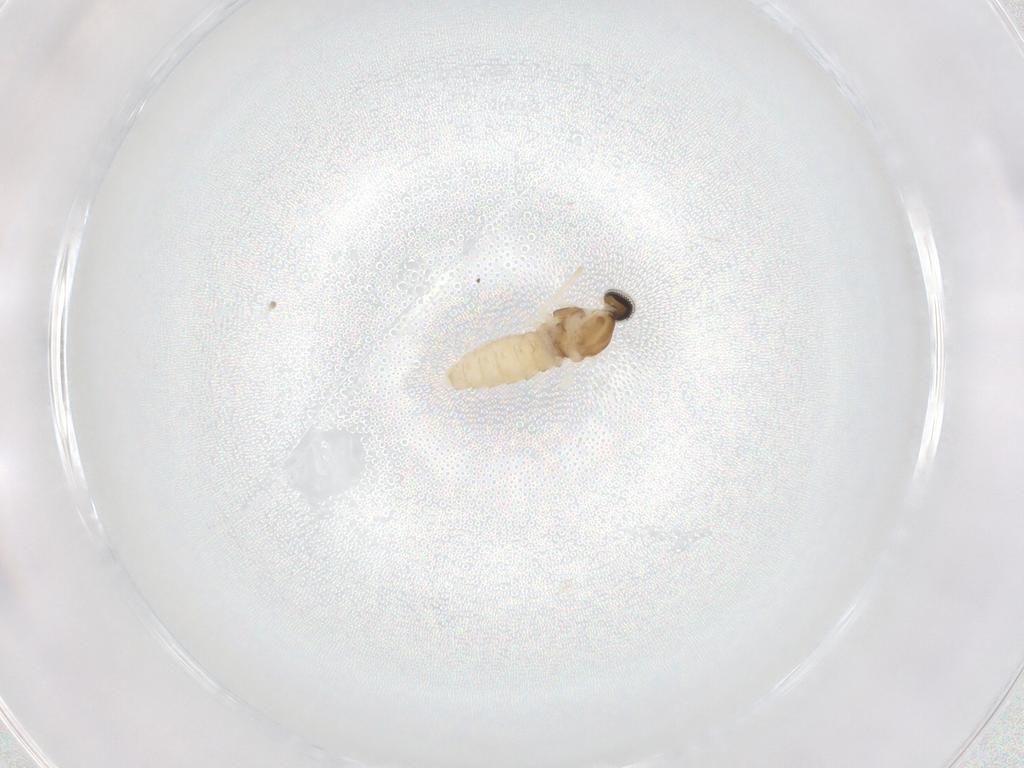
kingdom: Animalia
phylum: Arthropoda
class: Insecta
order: Diptera
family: Cecidomyiidae
